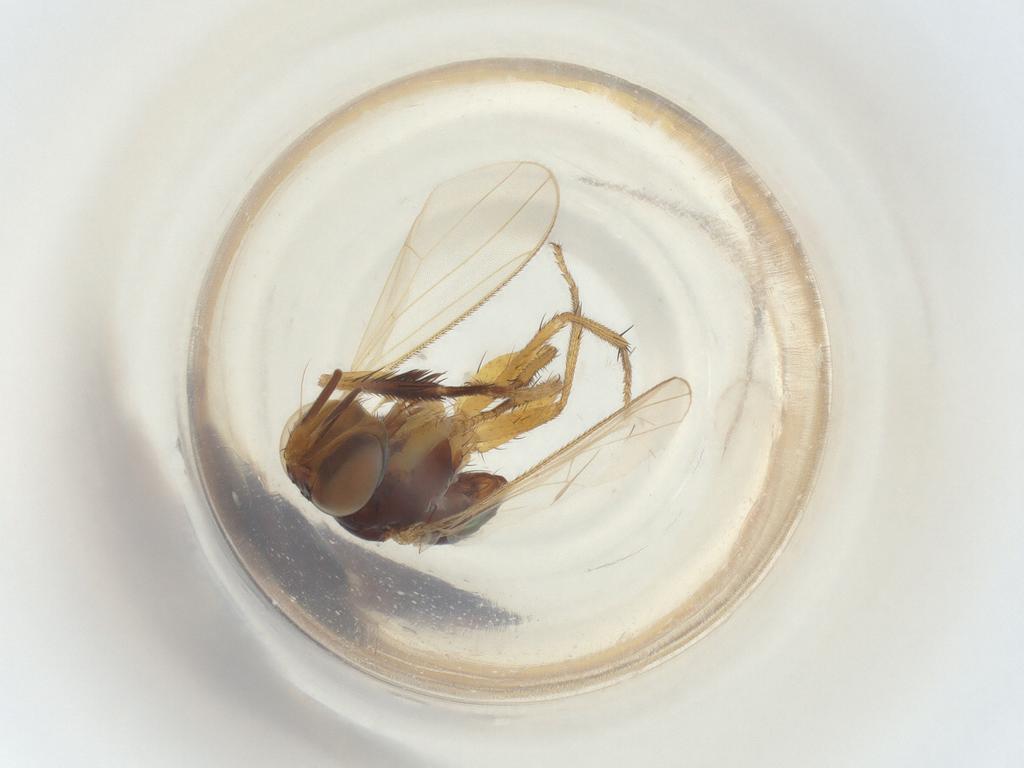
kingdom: Animalia
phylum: Arthropoda
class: Insecta
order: Diptera
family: Muscidae
